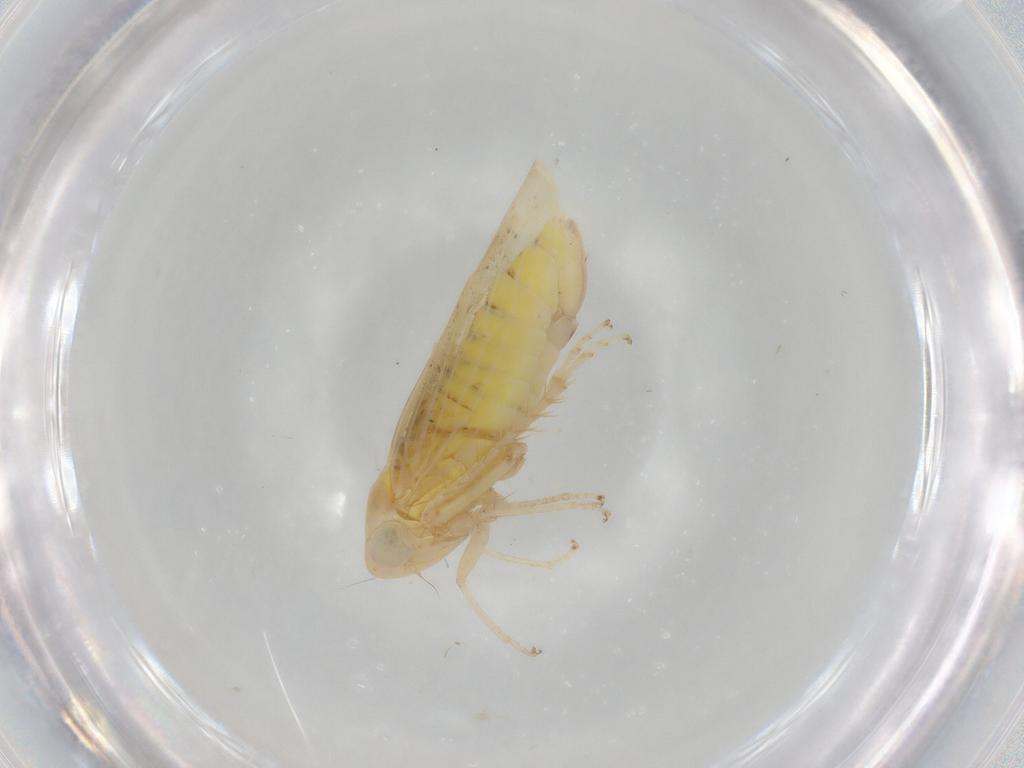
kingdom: Animalia
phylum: Arthropoda
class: Insecta
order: Hemiptera
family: Cicadellidae
